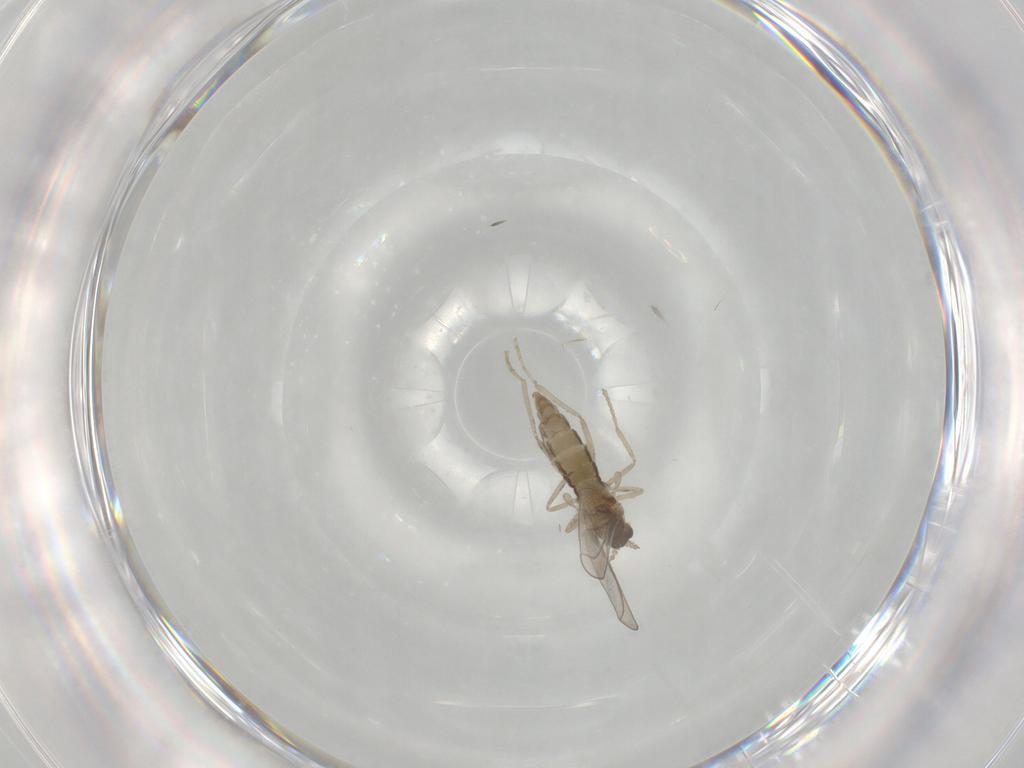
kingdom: Animalia
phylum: Arthropoda
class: Insecta
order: Diptera
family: Cecidomyiidae
